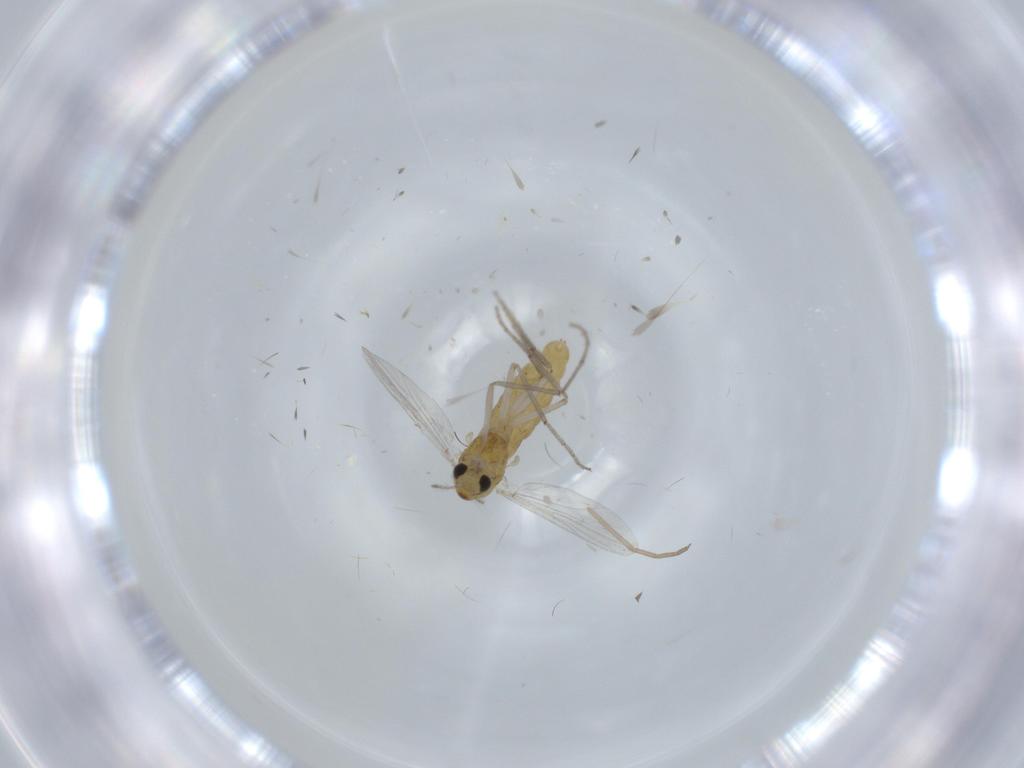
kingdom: Animalia
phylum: Arthropoda
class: Insecta
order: Diptera
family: Chironomidae
